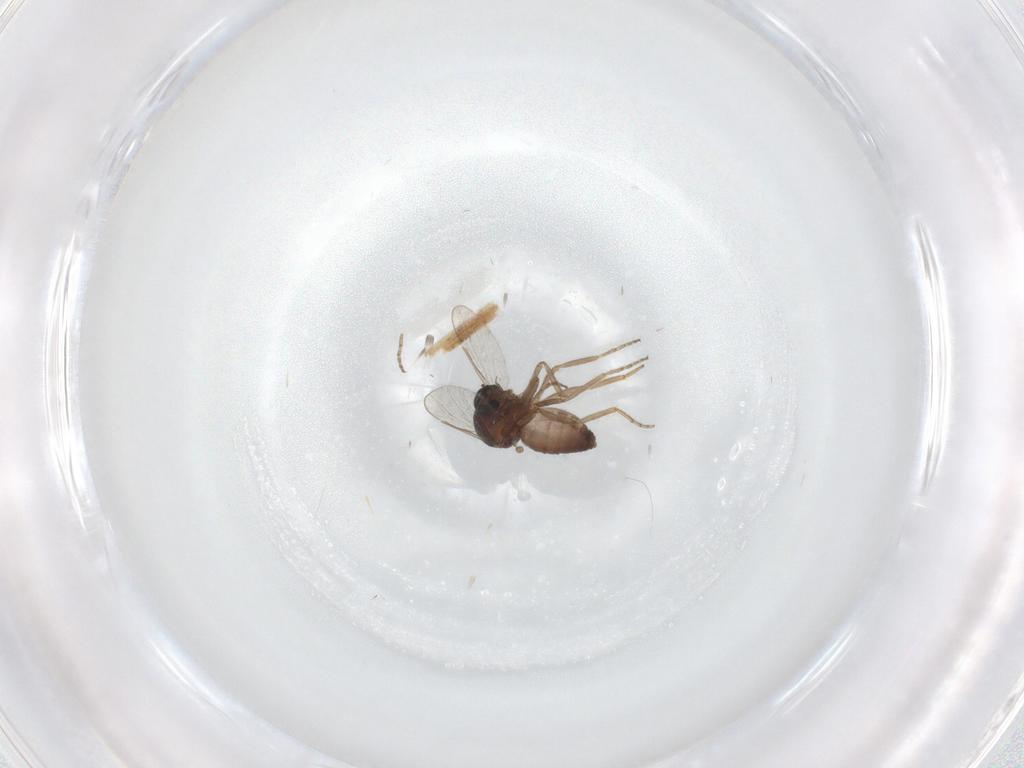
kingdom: Animalia
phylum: Arthropoda
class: Insecta
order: Diptera
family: Ceratopogonidae
